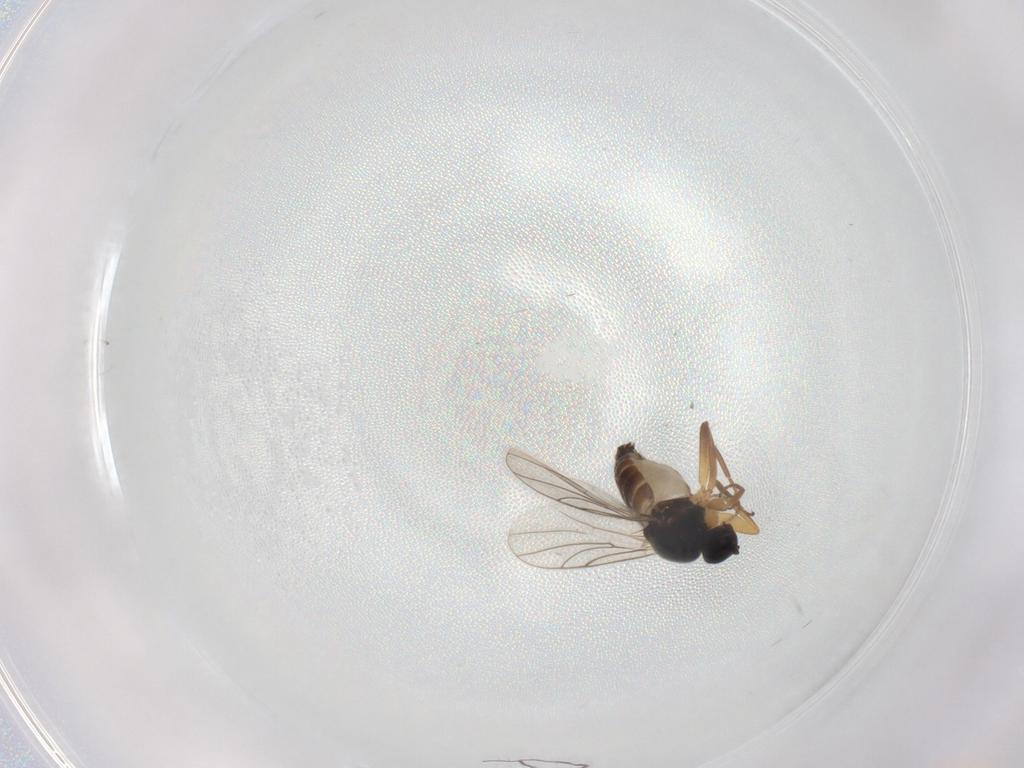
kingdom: Animalia
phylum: Arthropoda
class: Insecta
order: Diptera
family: Hybotidae
